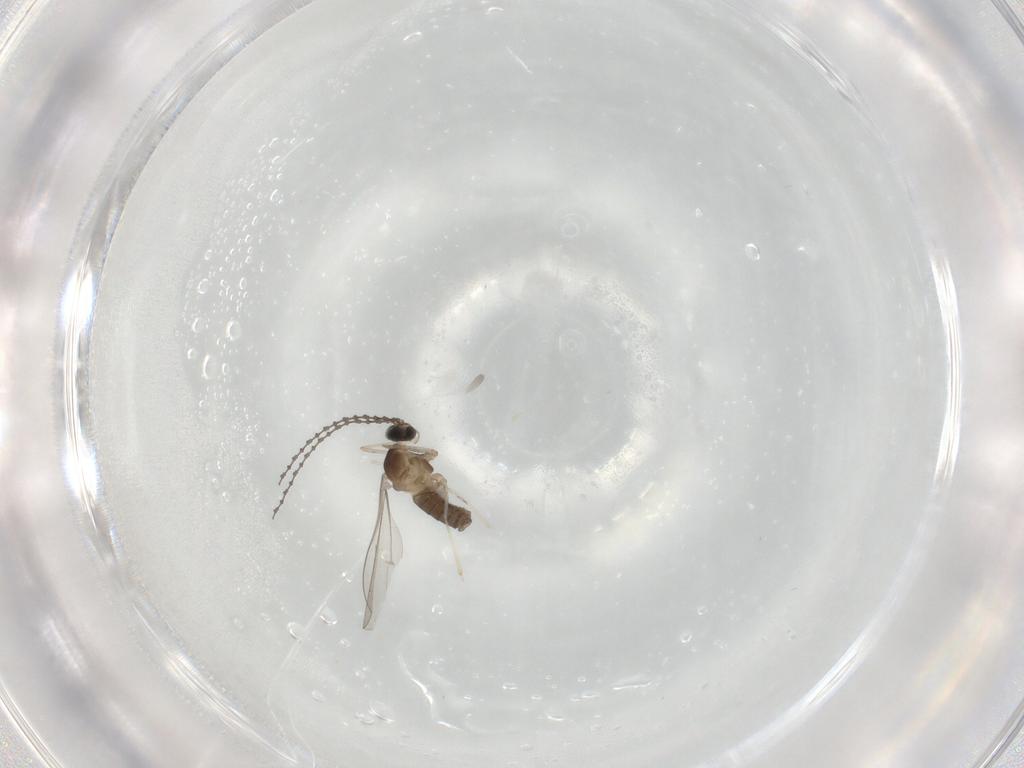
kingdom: Animalia
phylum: Arthropoda
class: Insecta
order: Diptera
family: Cecidomyiidae
